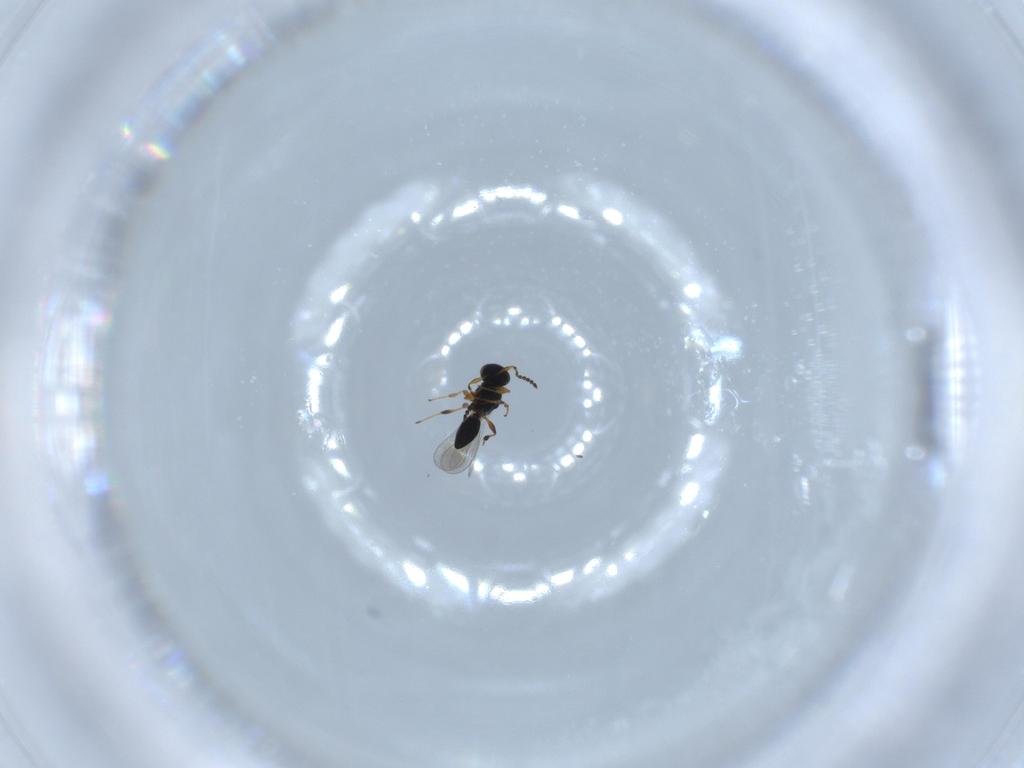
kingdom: Animalia
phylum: Arthropoda
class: Insecta
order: Hymenoptera
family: Platygastridae
